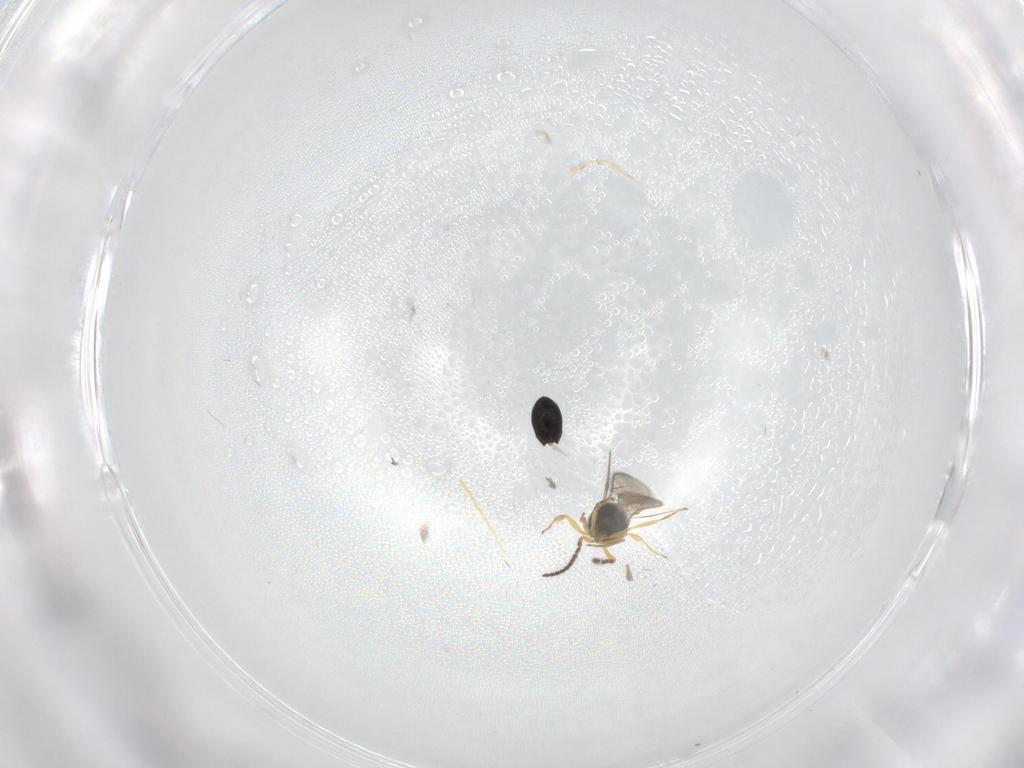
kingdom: Animalia
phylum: Arthropoda
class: Insecta
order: Hymenoptera
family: Scelionidae
